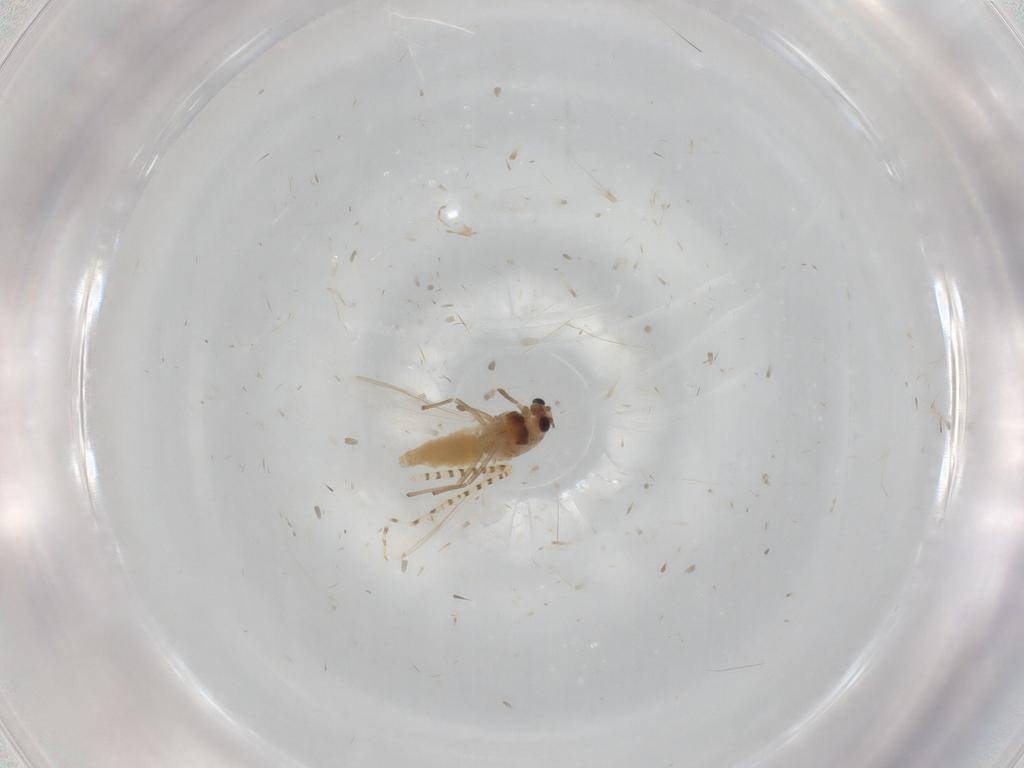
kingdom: Animalia
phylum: Arthropoda
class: Insecta
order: Diptera
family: Chironomidae
